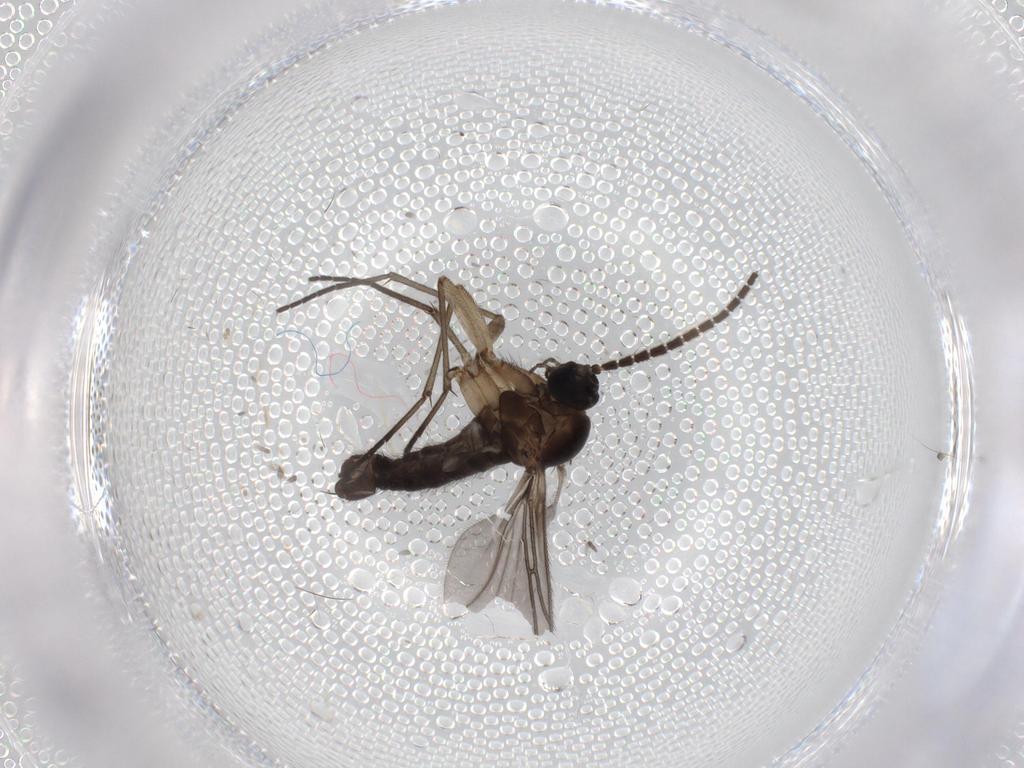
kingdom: Animalia
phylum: Arthropoda
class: Insecta
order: Diptera
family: Sciaridae
